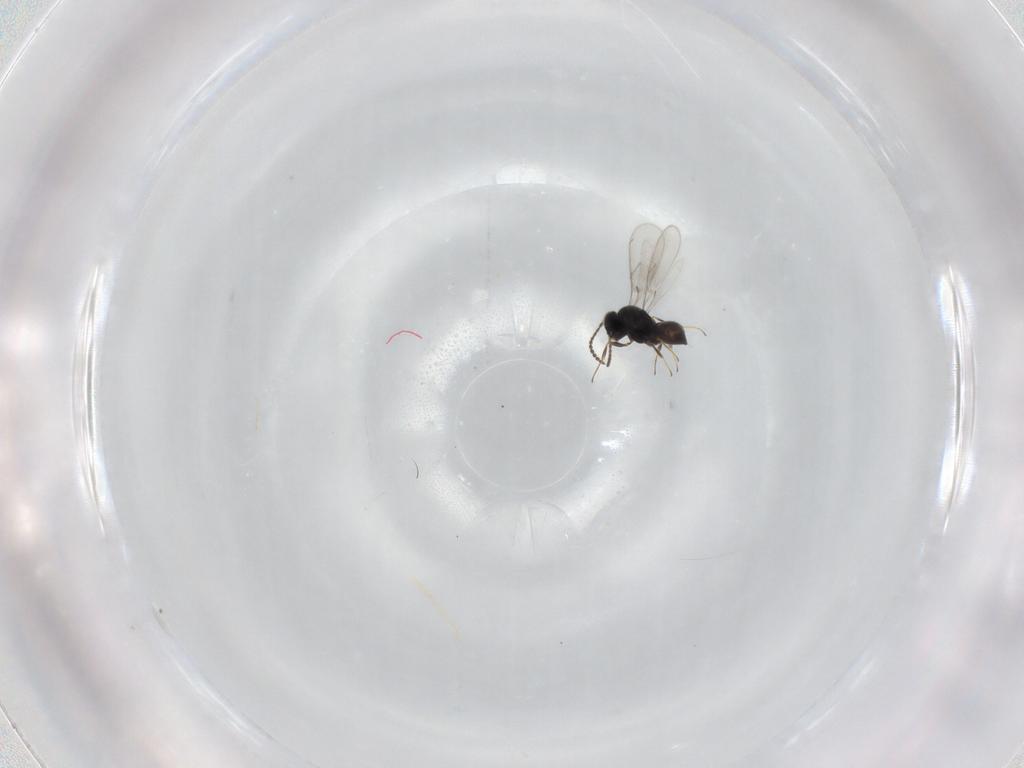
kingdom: Animalia
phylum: Arthropoda
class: Insecta
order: Hymenoptera
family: Scelionidae
